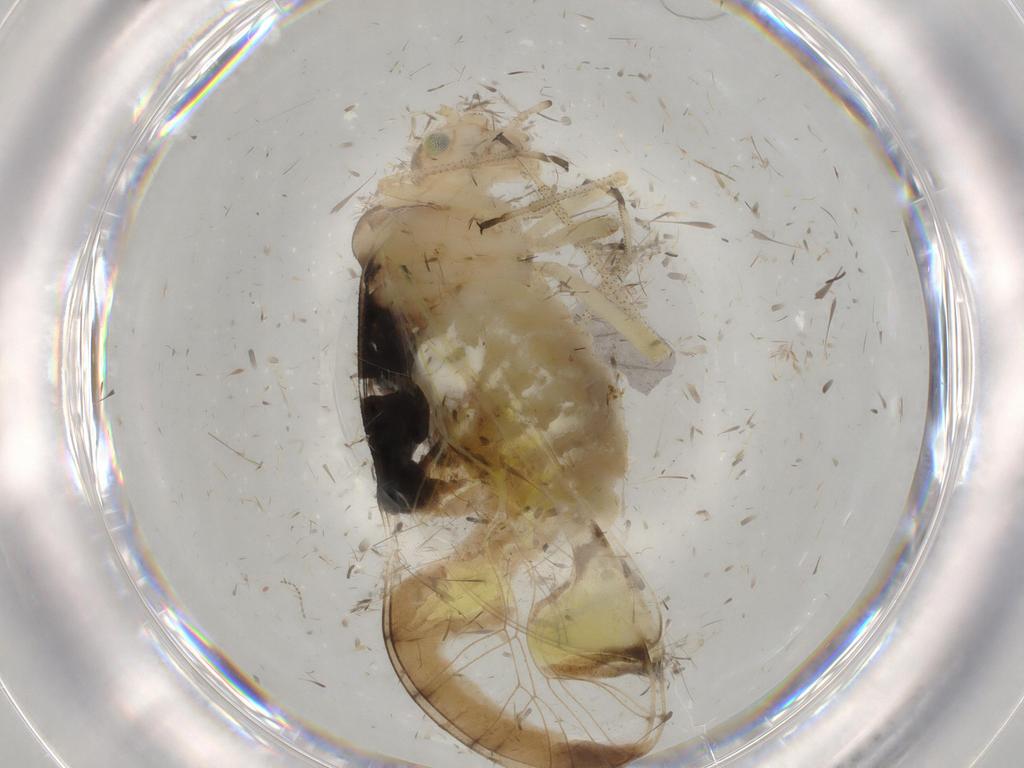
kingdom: Animalia
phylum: Arthropoda
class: Insecta
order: Psocodea
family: Amphipsocidae
